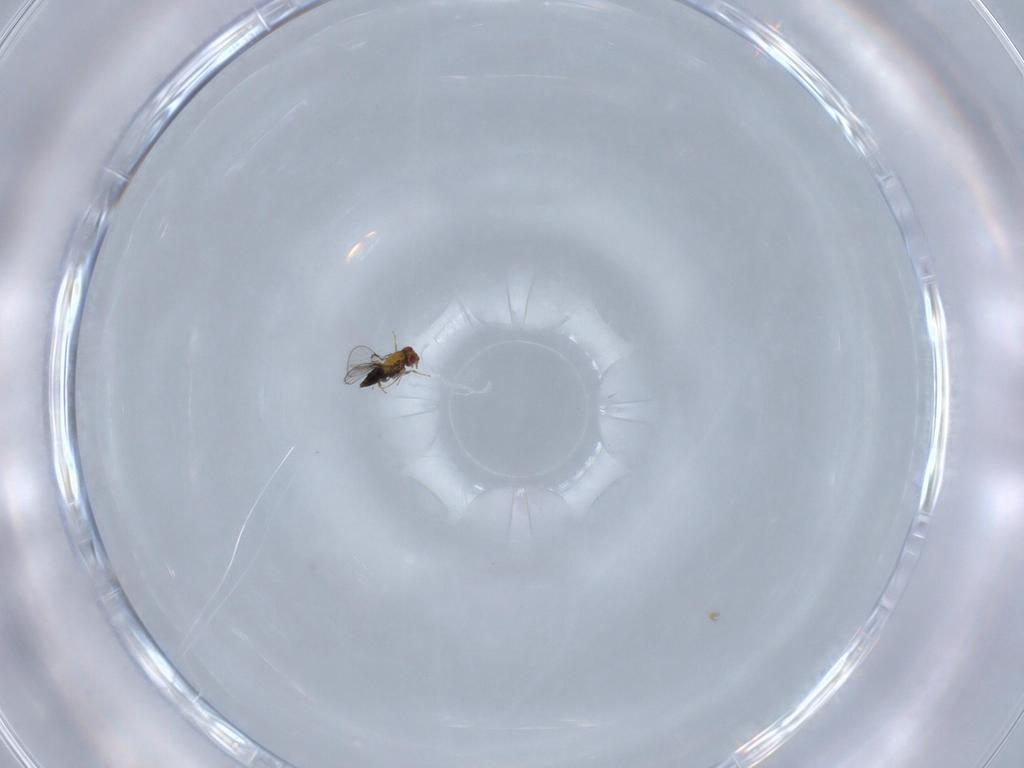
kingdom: Animalia
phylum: Arthropoda
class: Insecta
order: Hymenoptera
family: Trichogrammatidae
